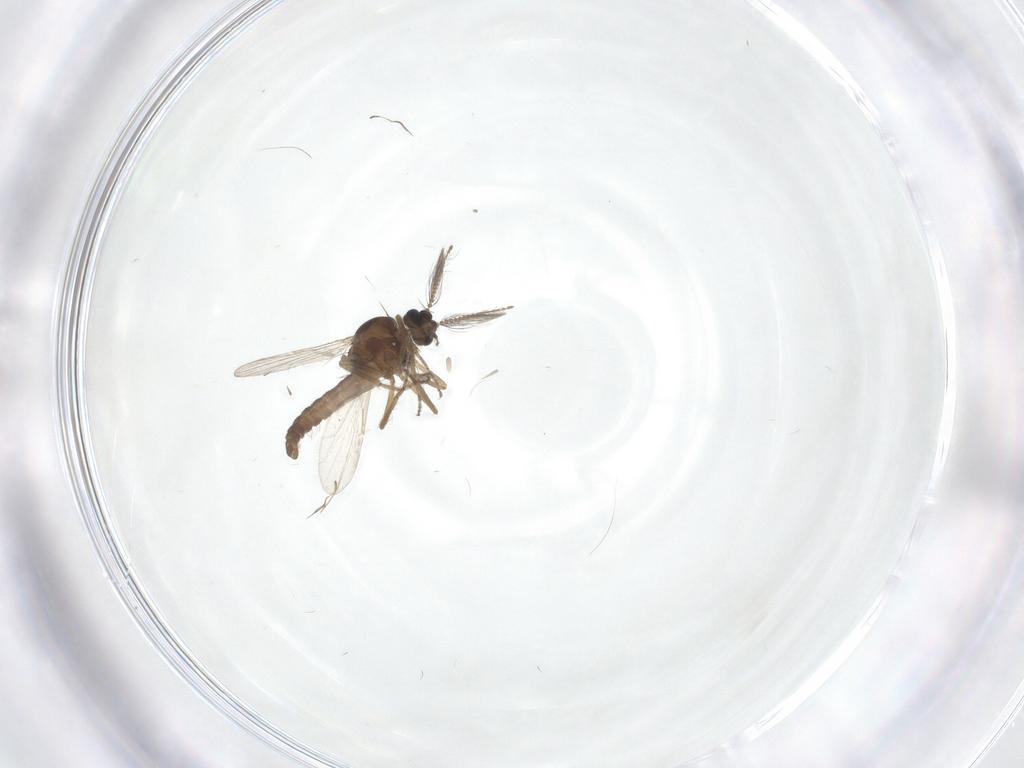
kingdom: Animalia
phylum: Arthropoda
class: Insecta
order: Diptera
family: Ceratopogonidae
